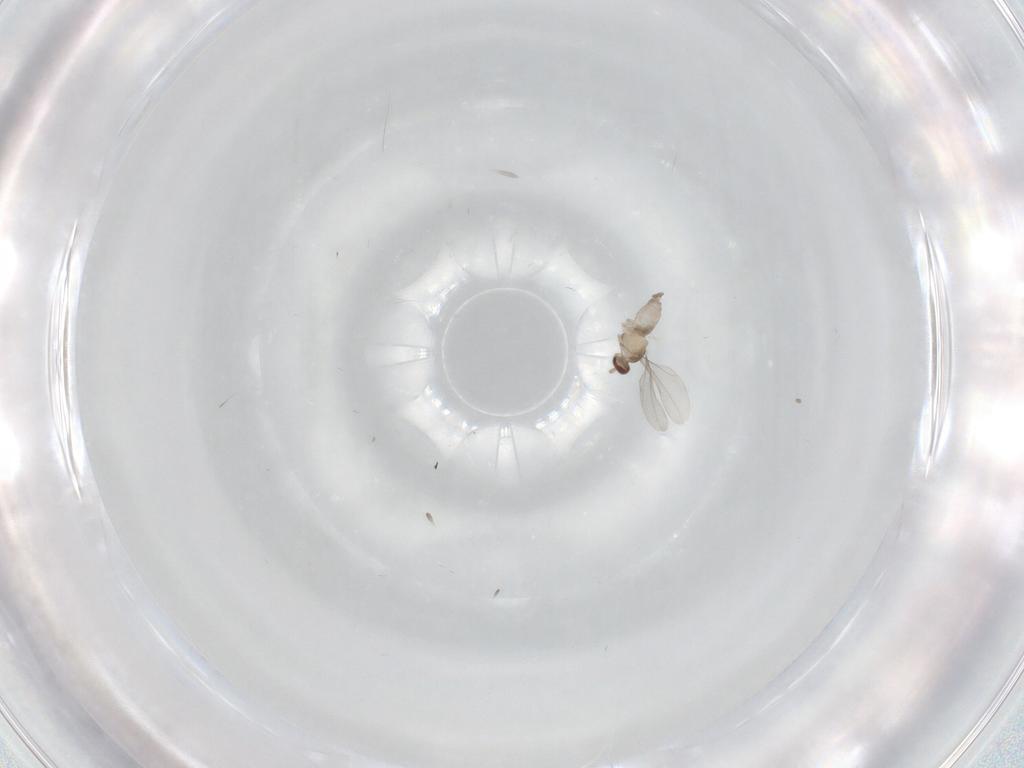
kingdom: Animalia
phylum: Arthropoda
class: Insecta
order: Diptera
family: Cecidomyiidae
